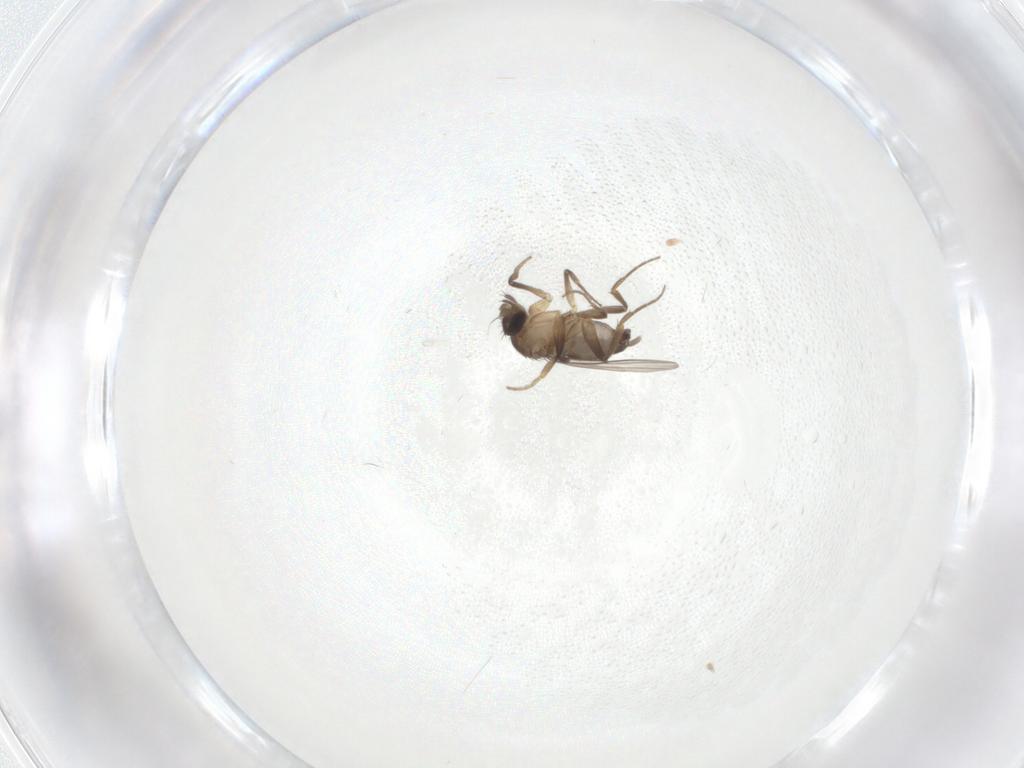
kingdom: Animalia
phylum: Arthropoda
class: Insecta
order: Diptera
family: Phoridae
